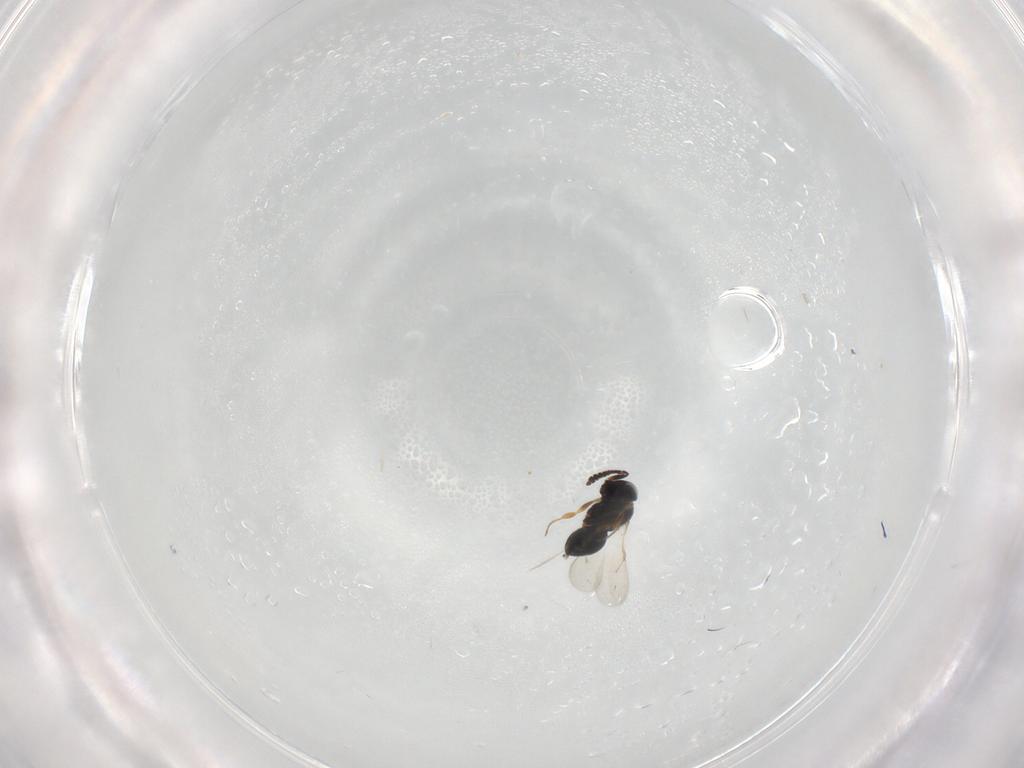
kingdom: Animalia
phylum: Arthropoda
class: Insecta
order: Hymenoptera
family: Scelionidae
